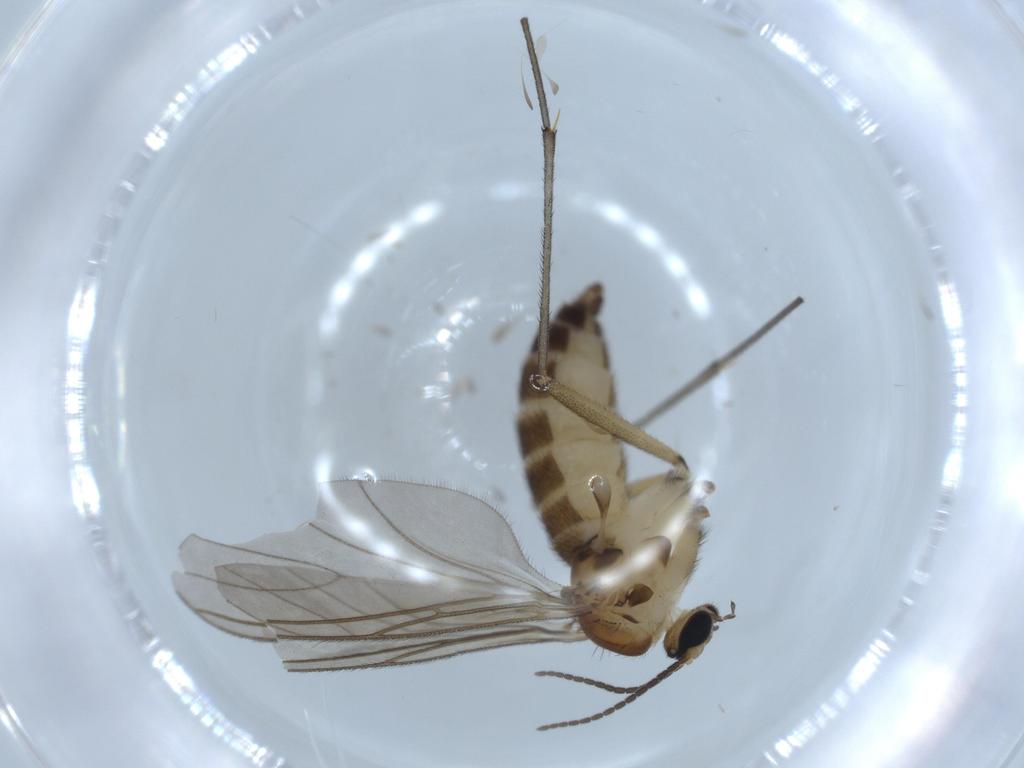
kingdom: Animalia
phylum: Arthropoda
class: Insecta
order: Diptera
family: Sciaridae
